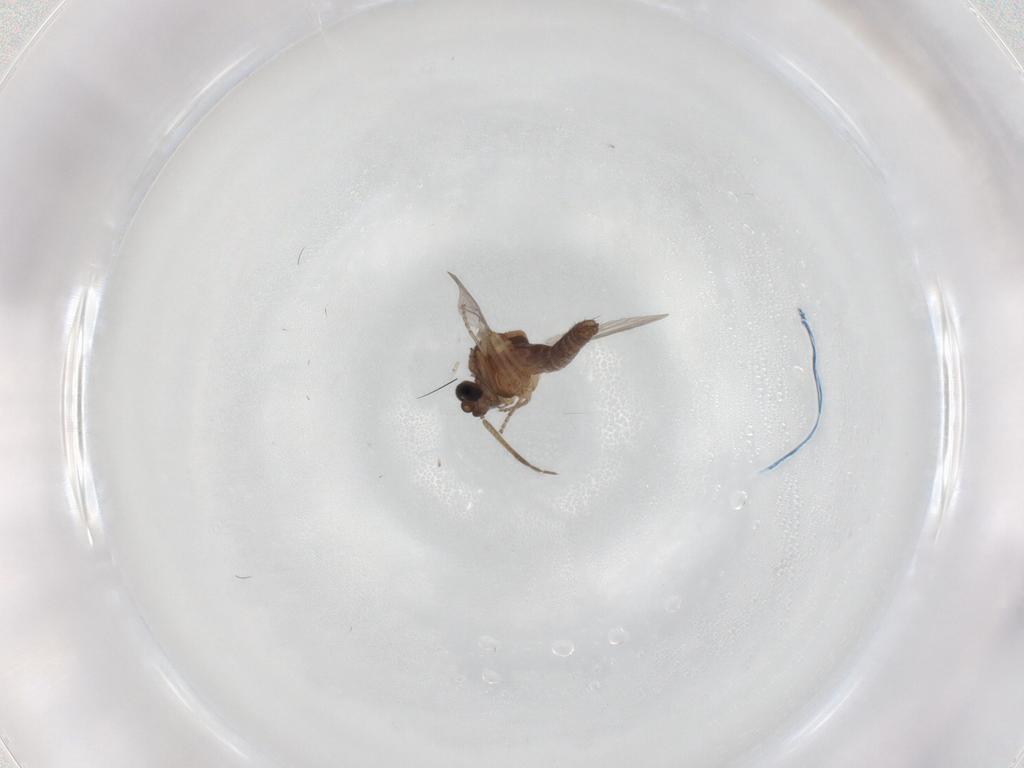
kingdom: Animalia
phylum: Arthropoda
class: Insecta
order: Diptera
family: Ceratopogonidae
